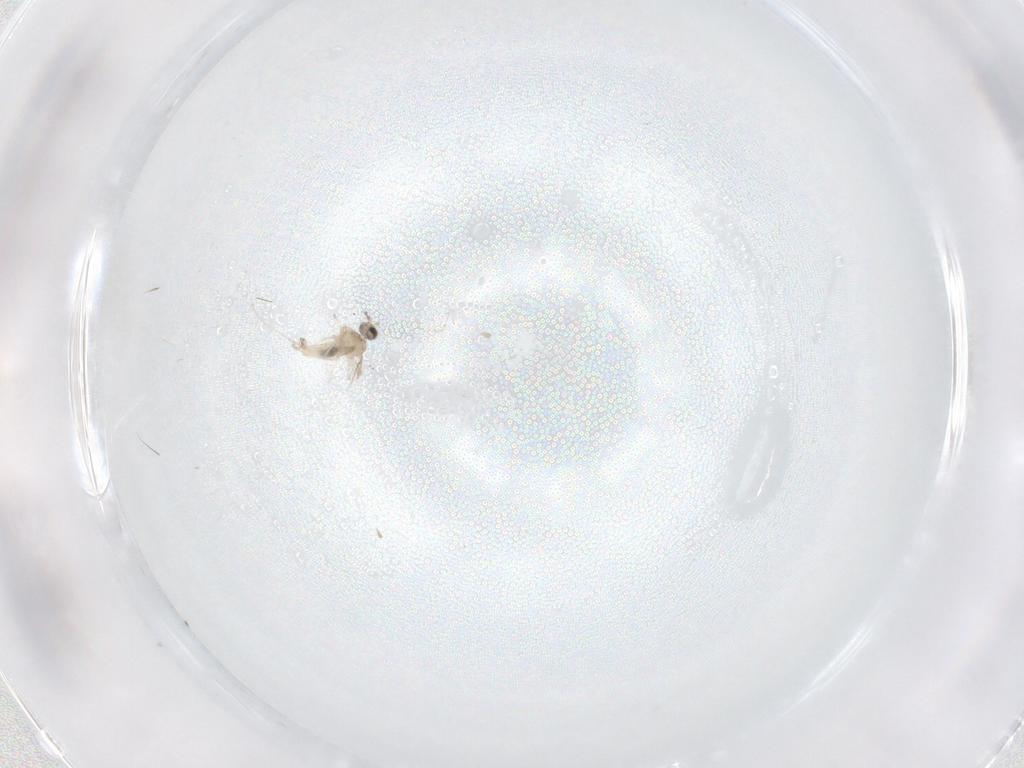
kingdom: Animalia
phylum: Arthropoda
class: Insecta
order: Diptera
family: Cecidomyiidae
